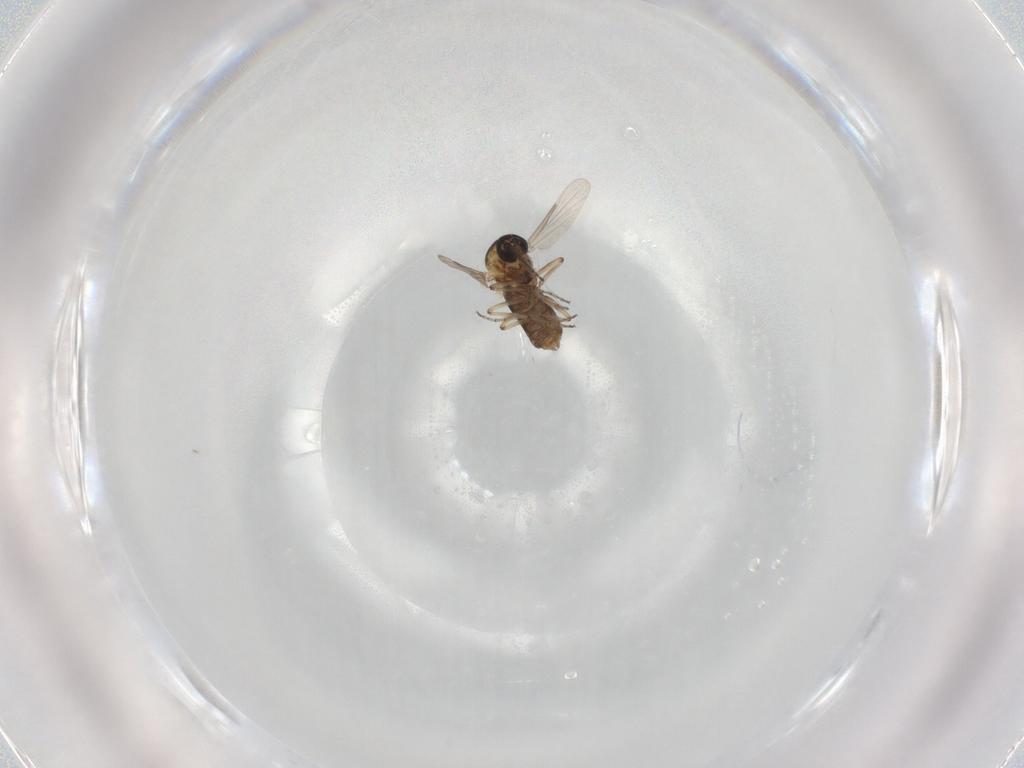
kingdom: Animalia
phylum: Arthropoda
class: Insecta
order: Diptera
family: Ceratopogonidae
